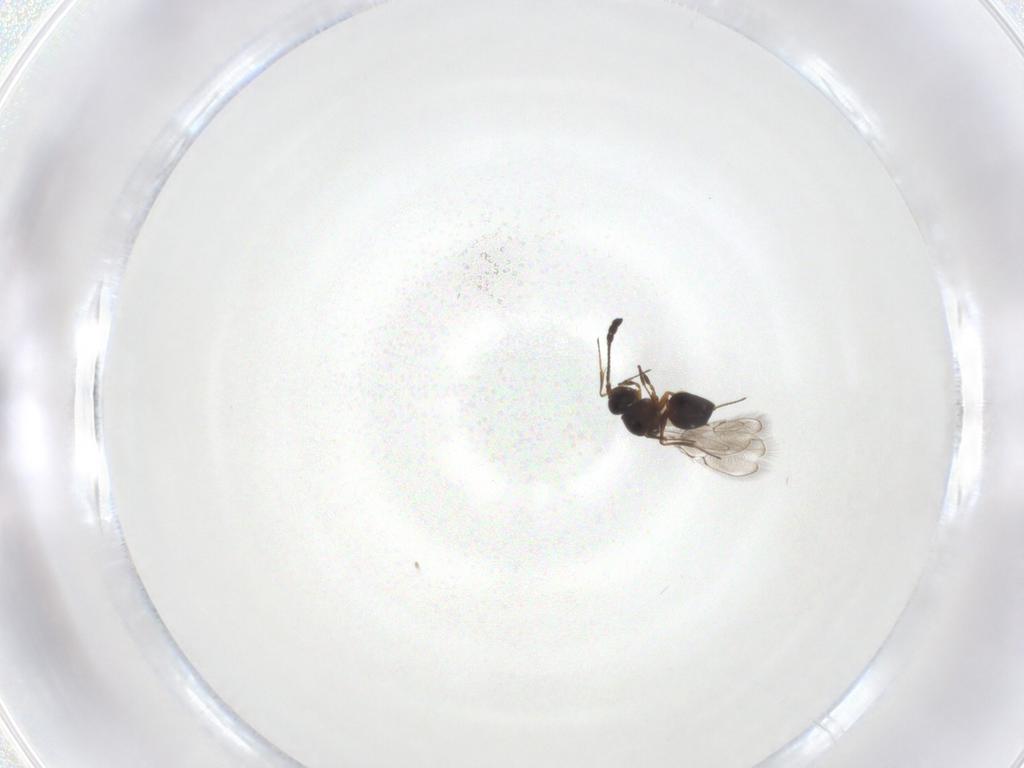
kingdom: Animalia
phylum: Arthropoda
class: Insecta
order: Hymenoptera
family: Figitidae
